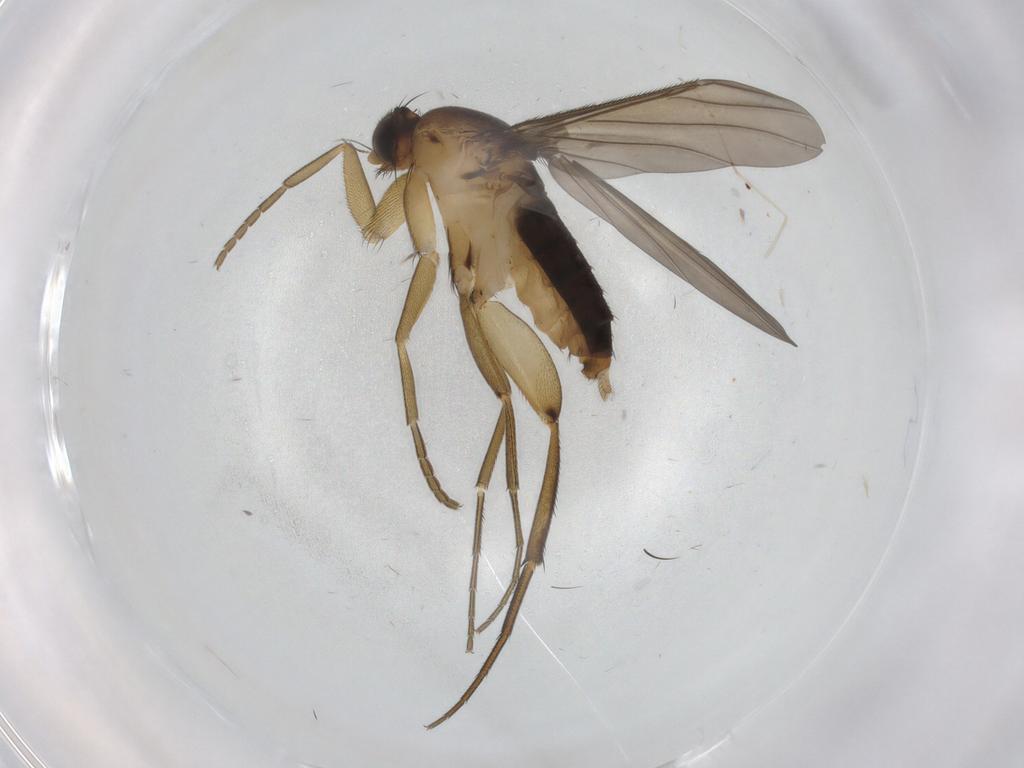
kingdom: Animalia
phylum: Arthropoda
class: Insecta
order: Diptera
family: Phoridae
